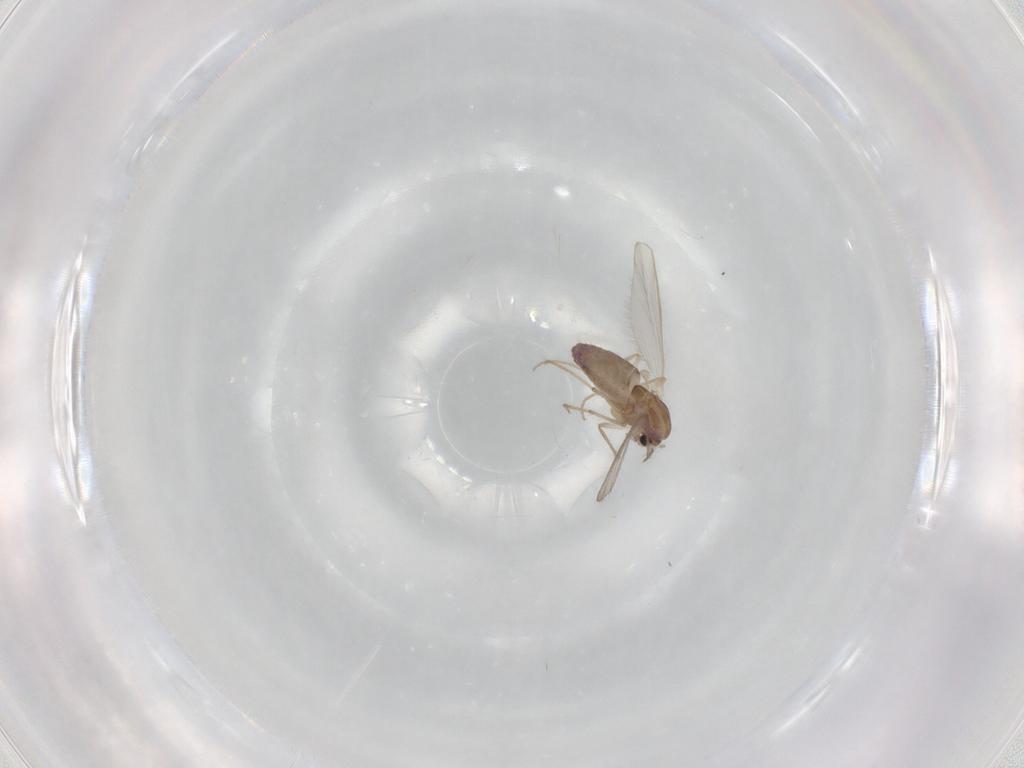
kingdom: Animalia
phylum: Arthropoda
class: Insecta
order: Diptera
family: Chironomidae
